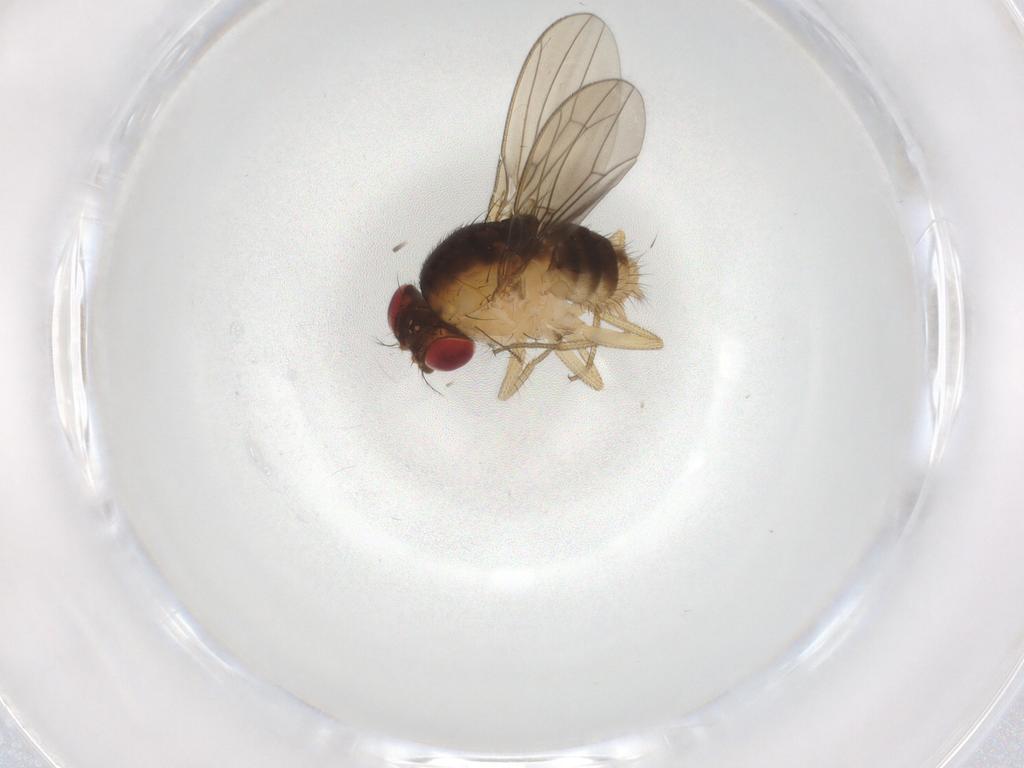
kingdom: Animalia
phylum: Arthropoda
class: Insecta
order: Diptera
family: Drosophilidae
